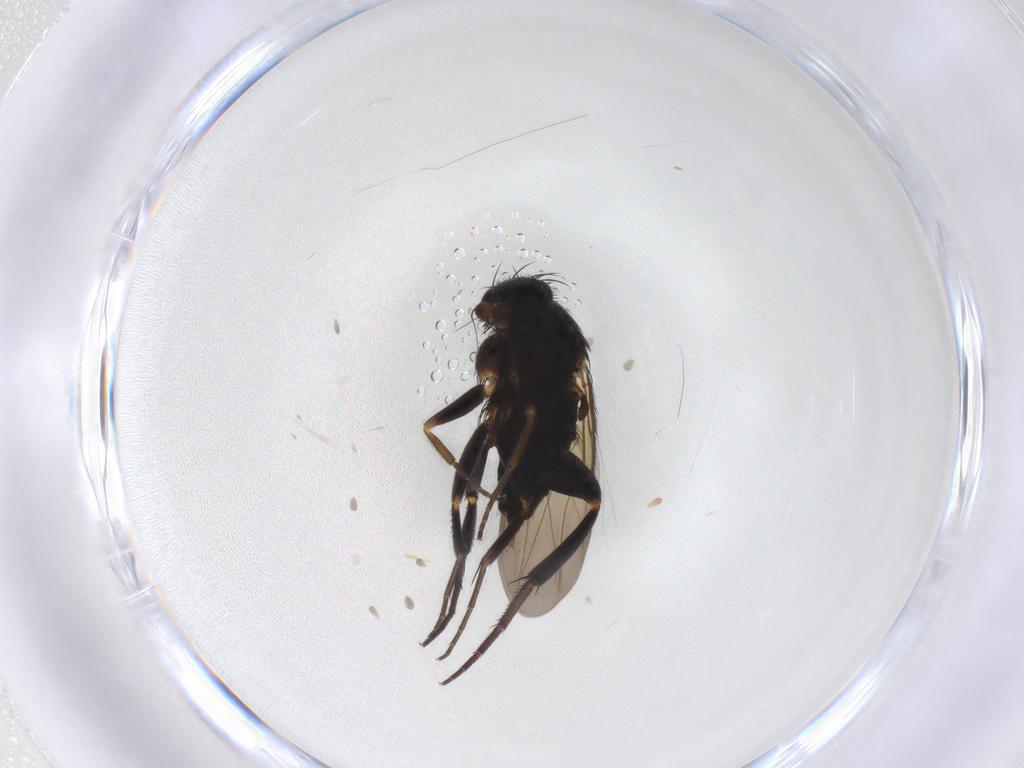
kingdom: Animalia
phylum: Arthropoda
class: Insecta
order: Diptera
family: Phoridae
